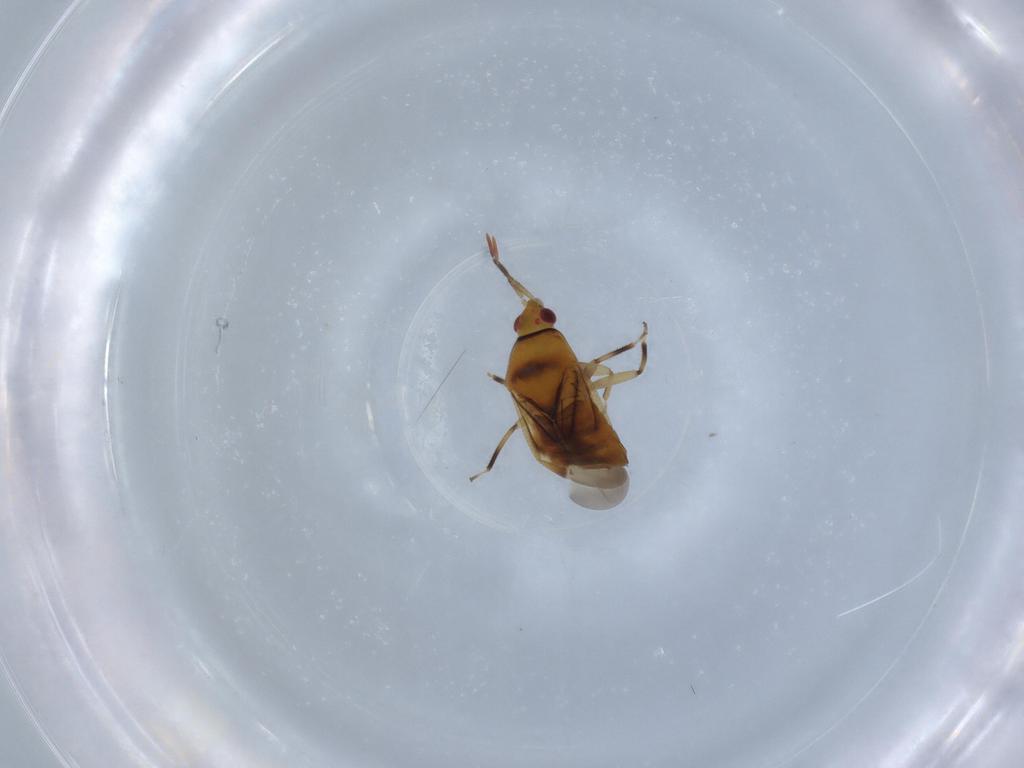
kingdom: Animalia
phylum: Arthropoda
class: Insecta
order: Hemiptera
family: Anthocoridae
